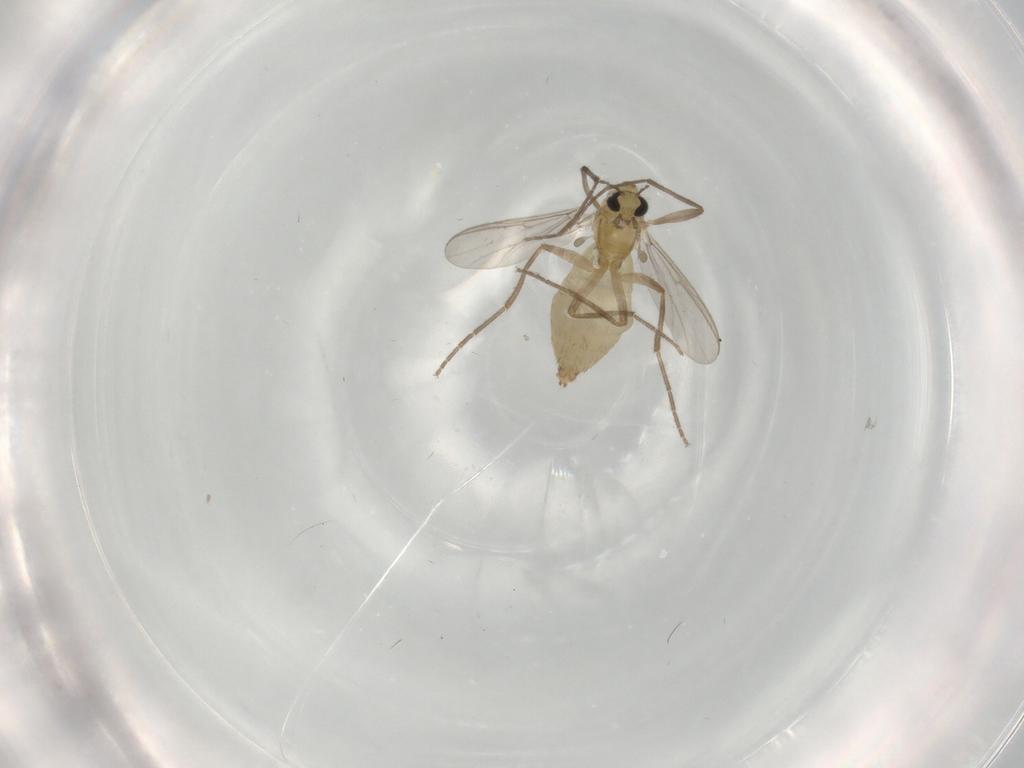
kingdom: Animalia
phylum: Arthropoda
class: Insecta
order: Diptera
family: Chironomidae
